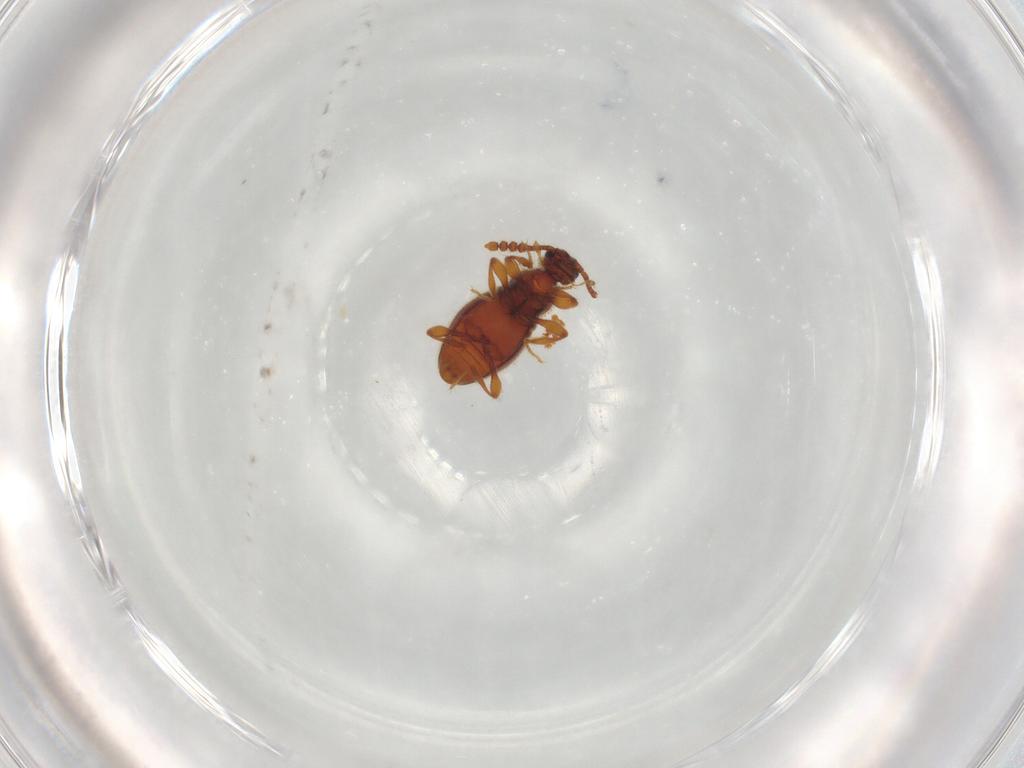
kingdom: Animalia
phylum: Arthropoda
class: Insecta
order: Coleoptera
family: Staphylinidae
